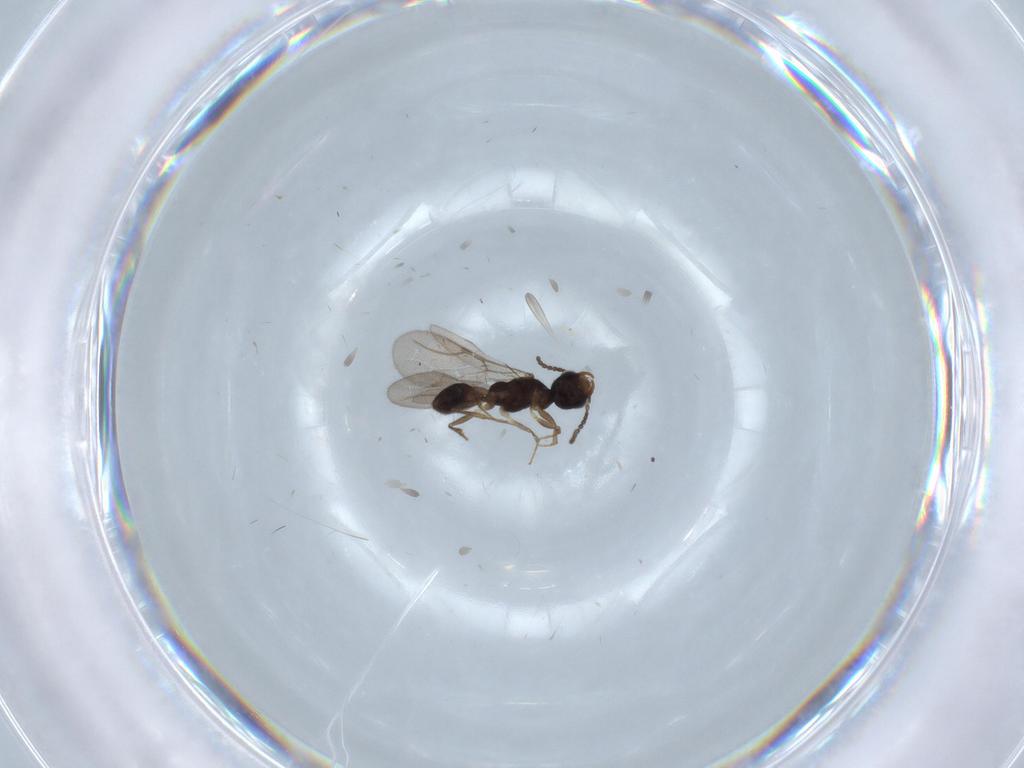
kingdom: Animalia
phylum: Arthropoda
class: Insecta
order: Hymenoptera
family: Bethylidae
